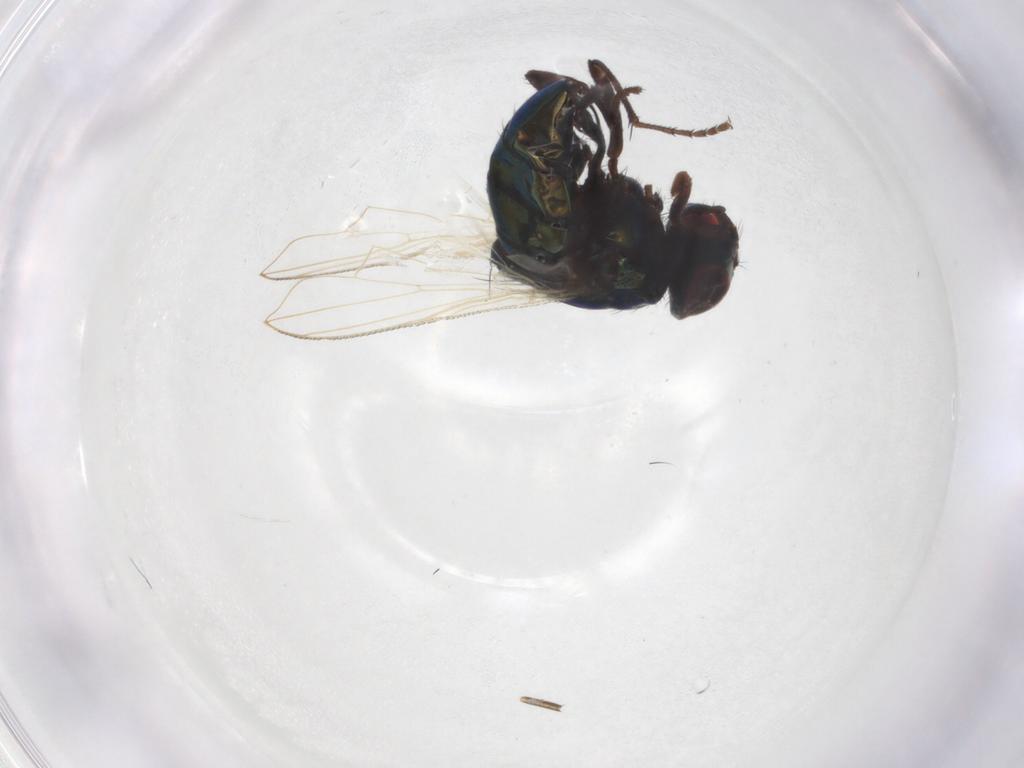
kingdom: Animalia
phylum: Arthropoda
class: Insecta
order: Diptera
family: Muscidae
